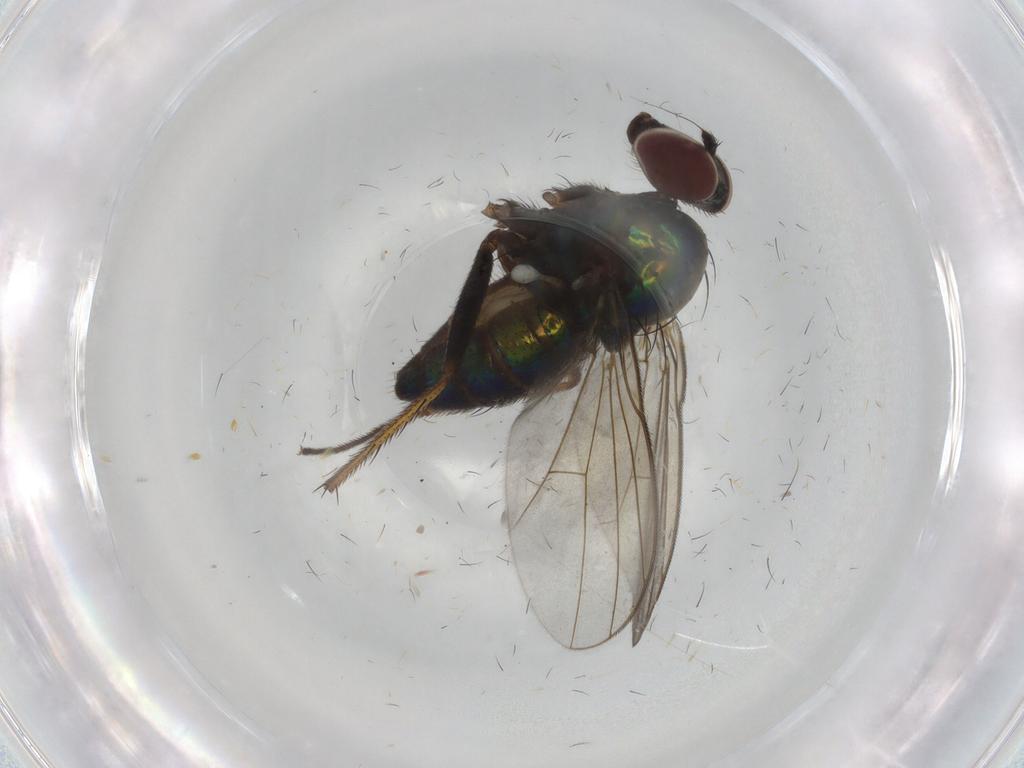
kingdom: Animalia
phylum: Arthropoda
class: Insecta
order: Diptera
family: Dolichopodidae
